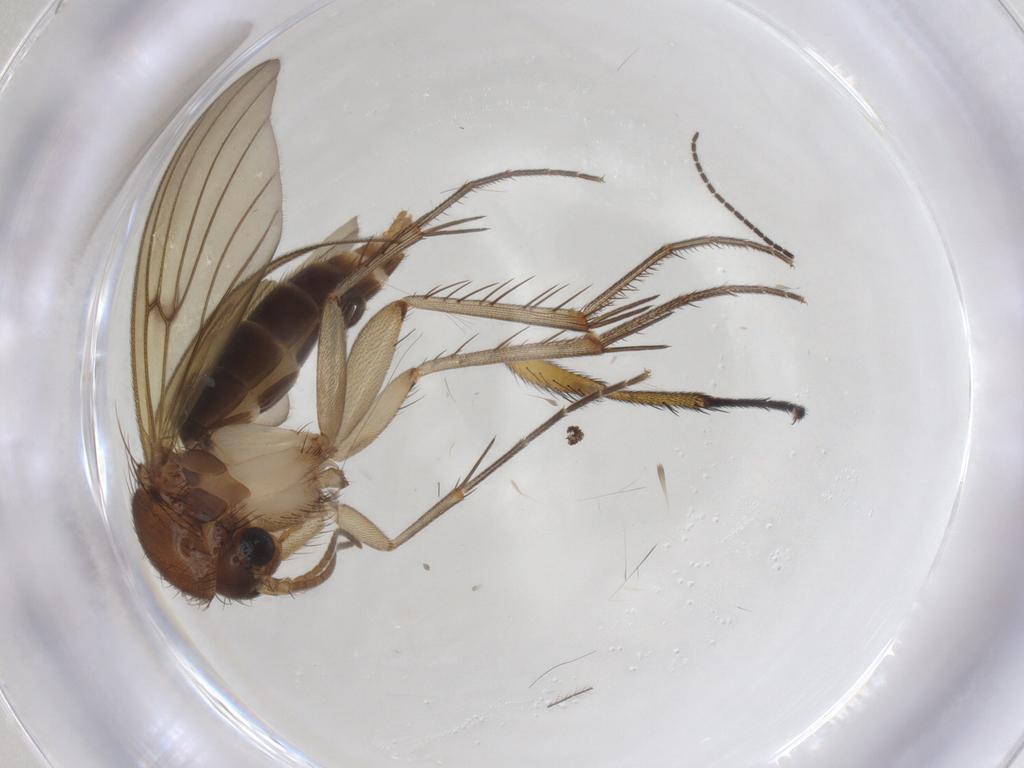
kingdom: Animalia
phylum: Arthropoda
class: Insecta
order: Diptera
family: Mycetophilidae
